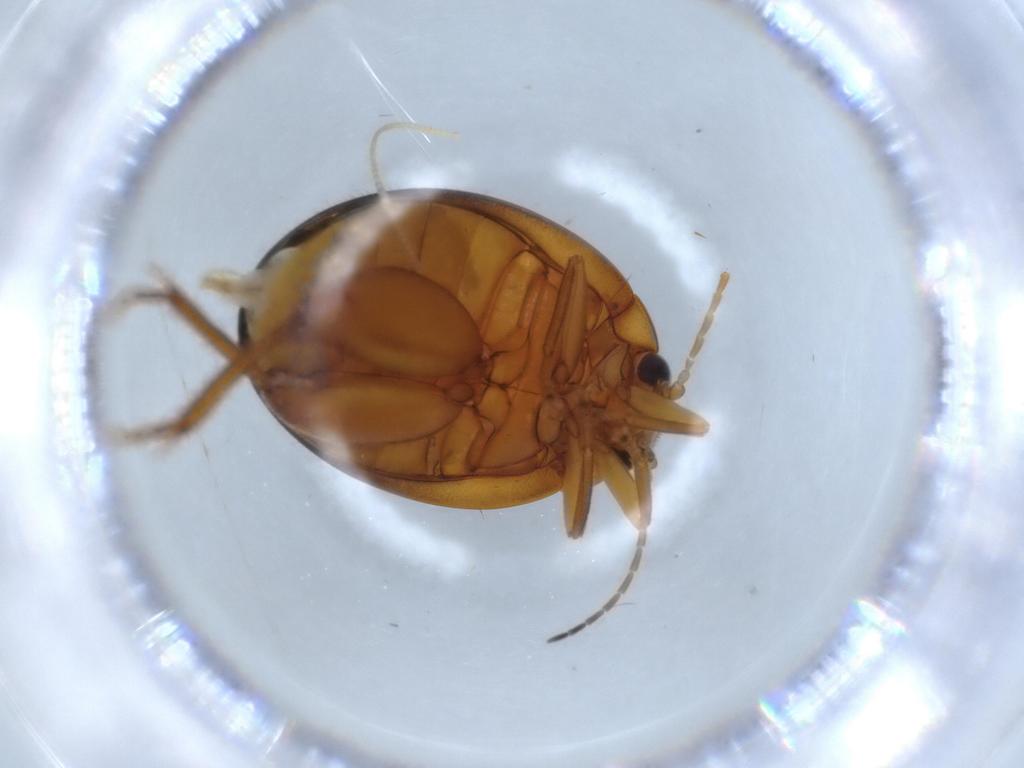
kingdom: Animalia
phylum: Arthropoda
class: Insecta
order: Coleoptera
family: Scirtidae
